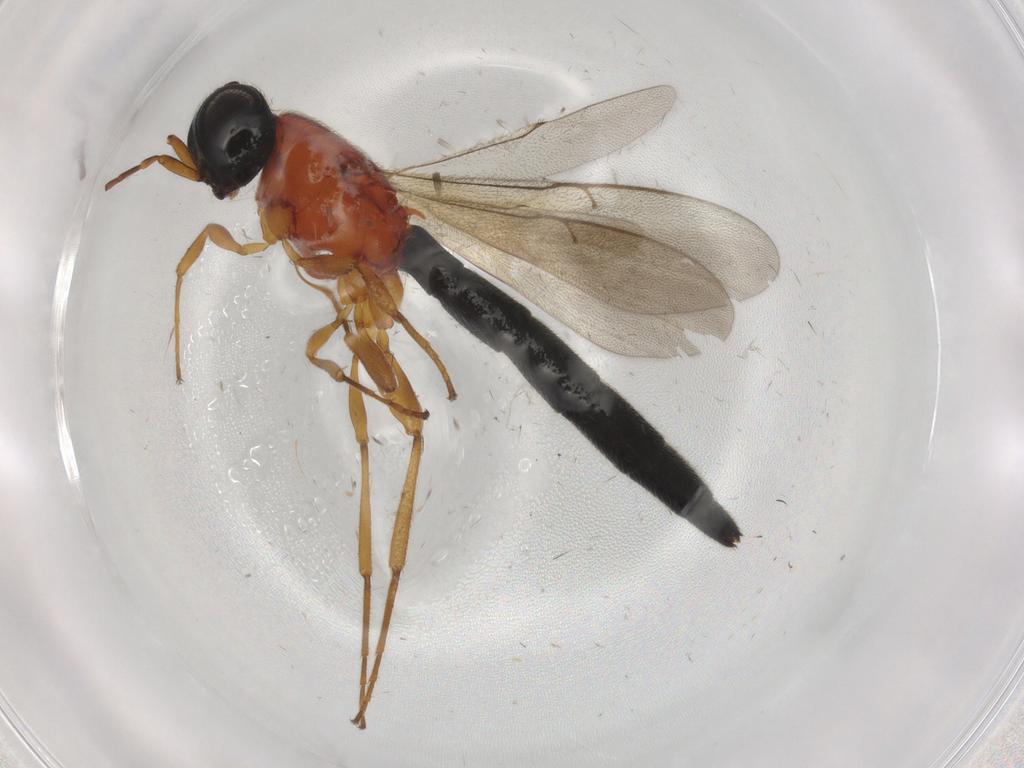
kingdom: Animalia
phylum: Arthropoda
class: Insecta
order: Hymenoptera
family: Scelionidae
